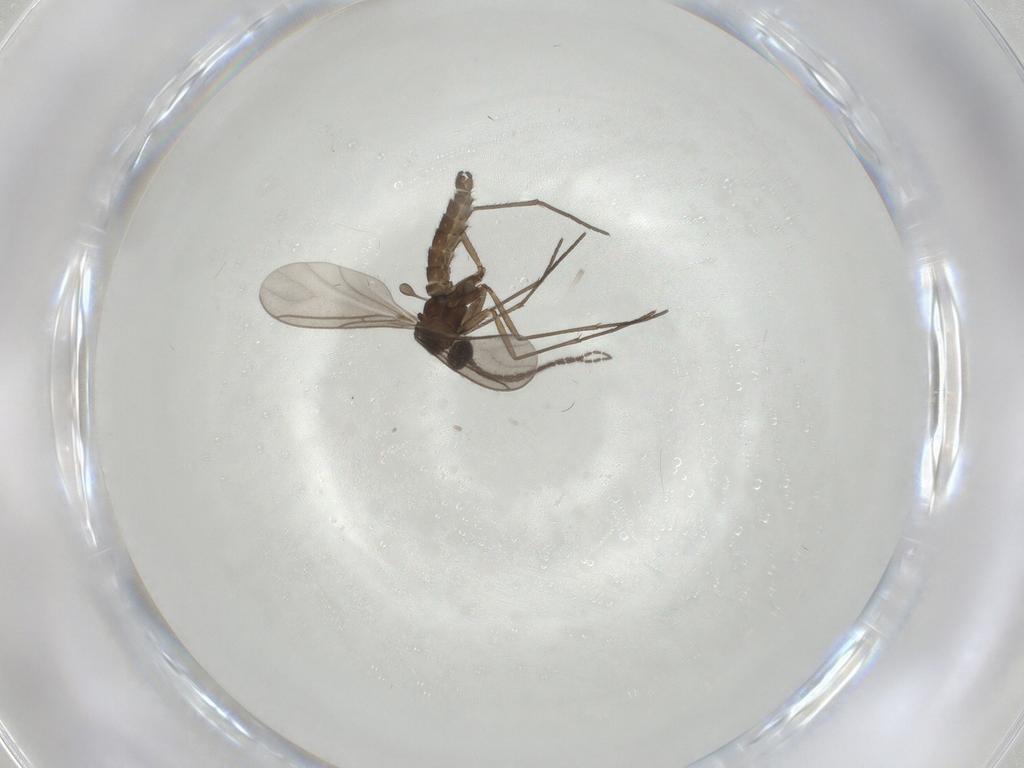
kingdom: Animalia
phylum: Arthropoda
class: Insecta
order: Diptera
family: Sciaridae
